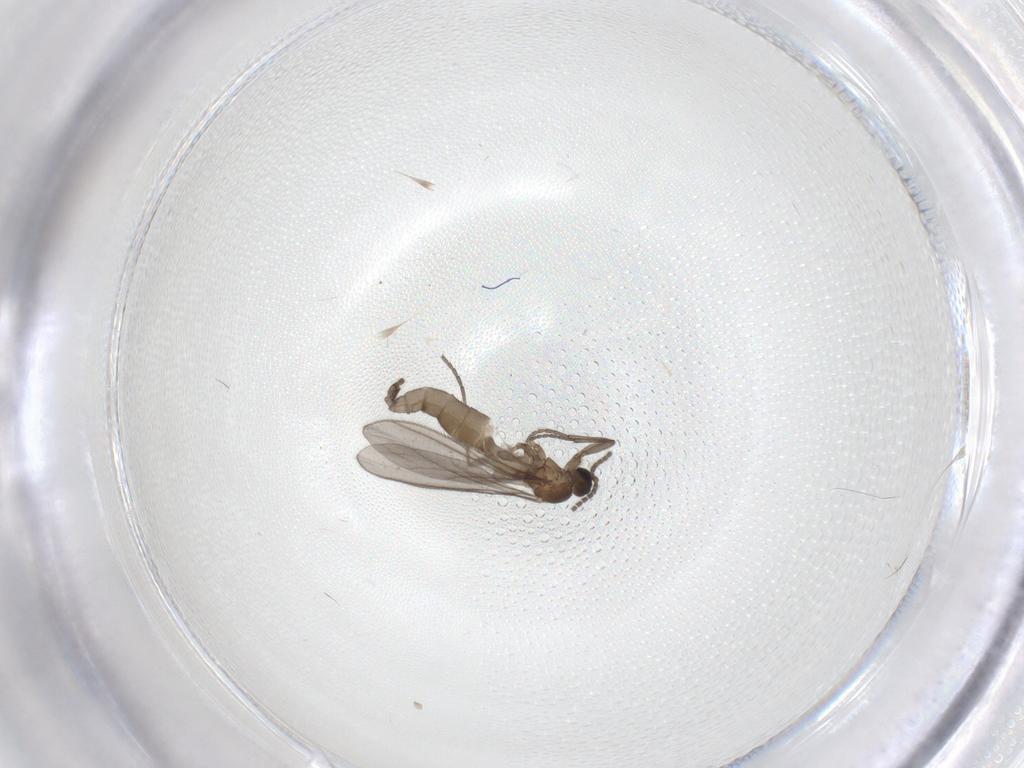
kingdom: Animalia
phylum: Arthropoda
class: Insecta
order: Diptera
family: Sciaridae
